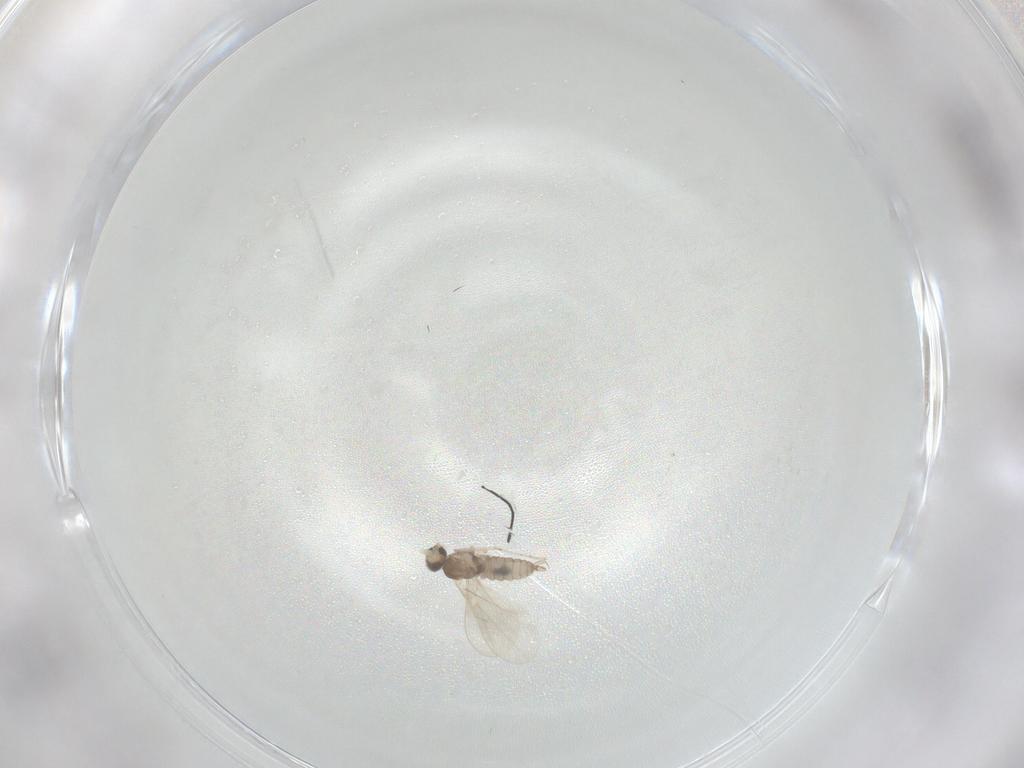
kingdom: Animalia
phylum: Arthropoda
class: Insecta
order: Diptera
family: Cecidomyiidae
